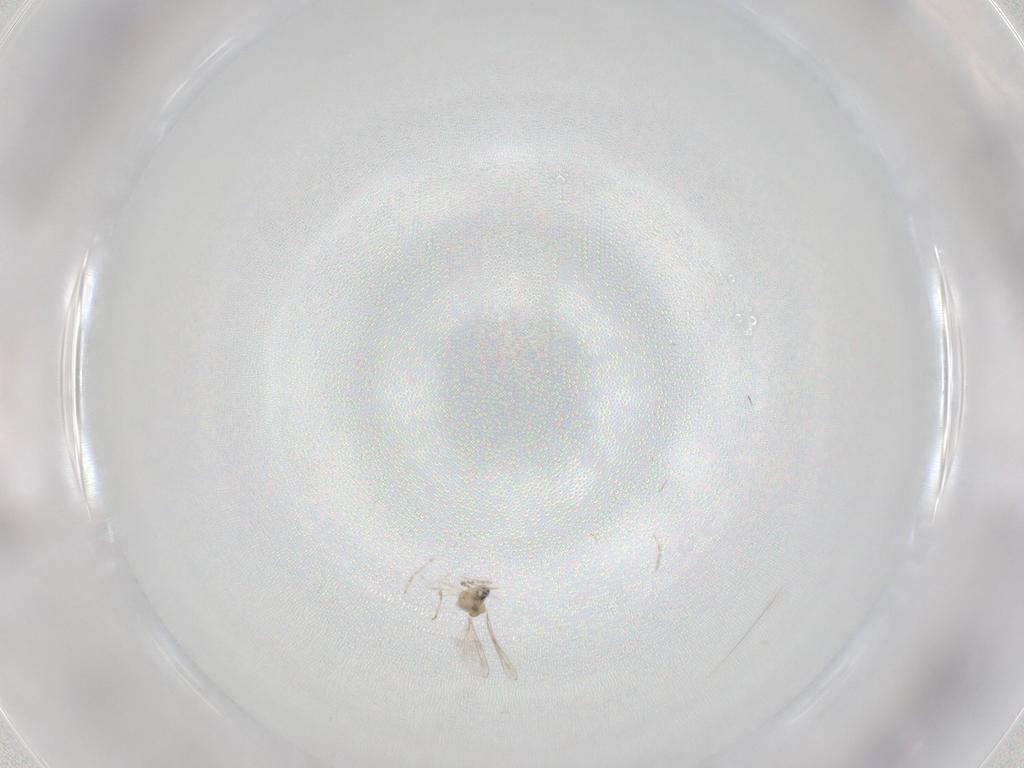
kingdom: Animalia
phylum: Arthropoda
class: Insecta
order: Diptera
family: Cecidomyiidae
